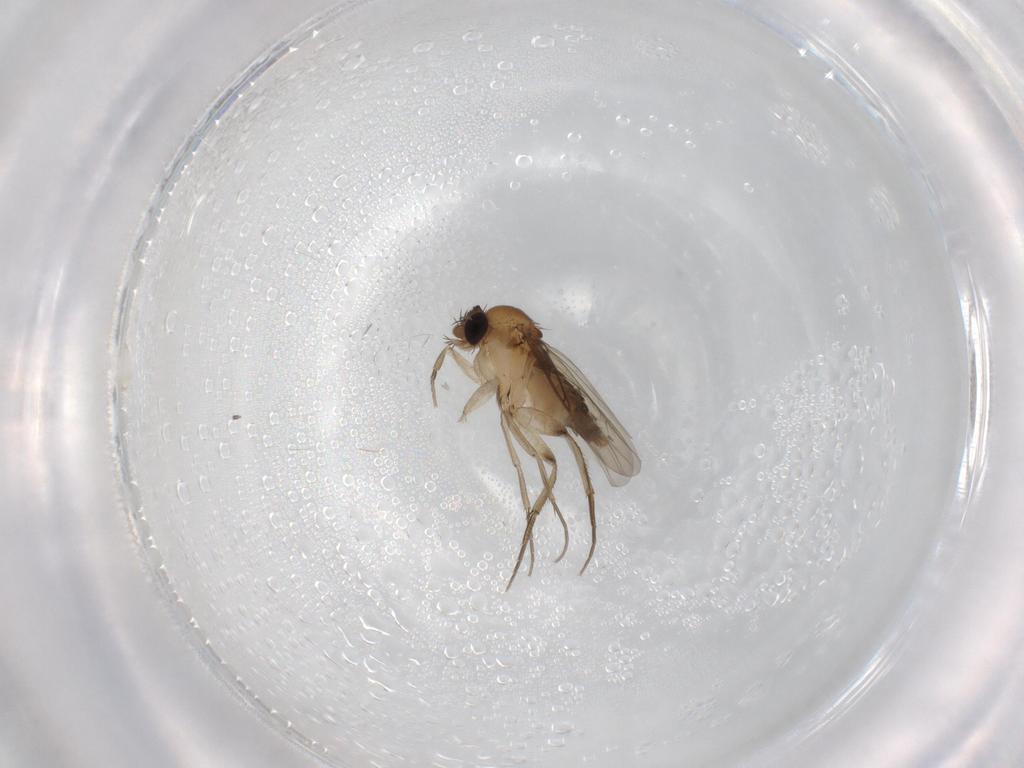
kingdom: Animalia
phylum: Arthropoda
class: Insecta
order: Diptera
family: Phoridae
